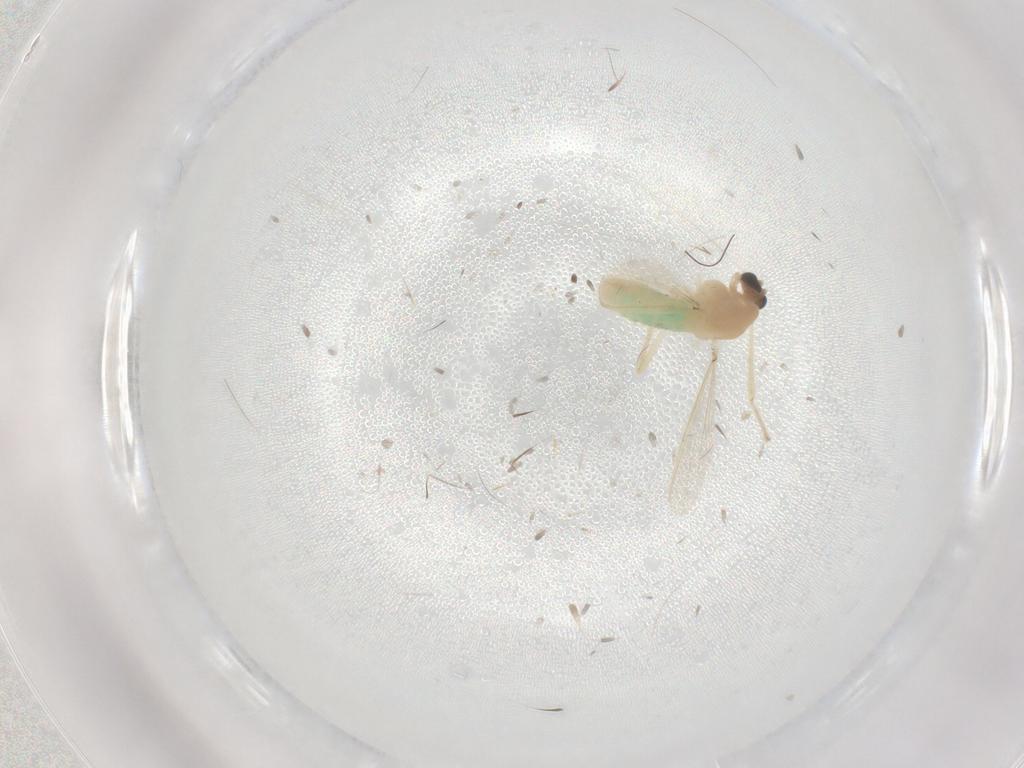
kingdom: Animalia
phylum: Arthropoda
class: Insecta
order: Diptera
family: Chironomidae
